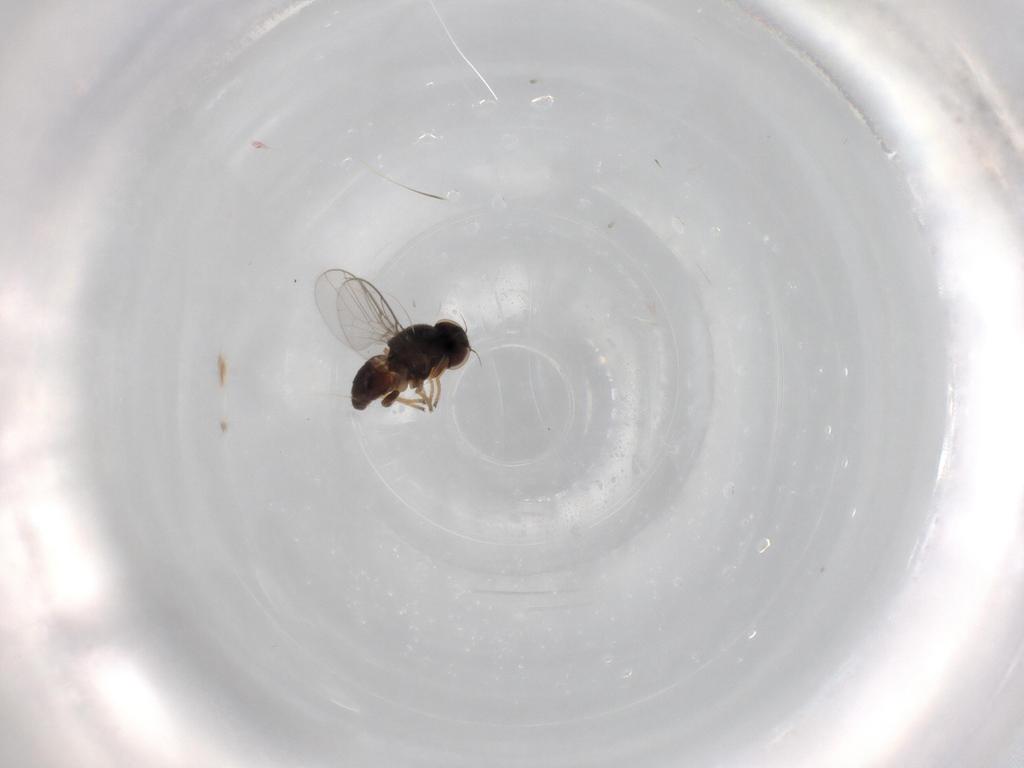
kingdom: Animalia
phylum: Arthropoda
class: Insecta
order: Diptera
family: Chloropidae
